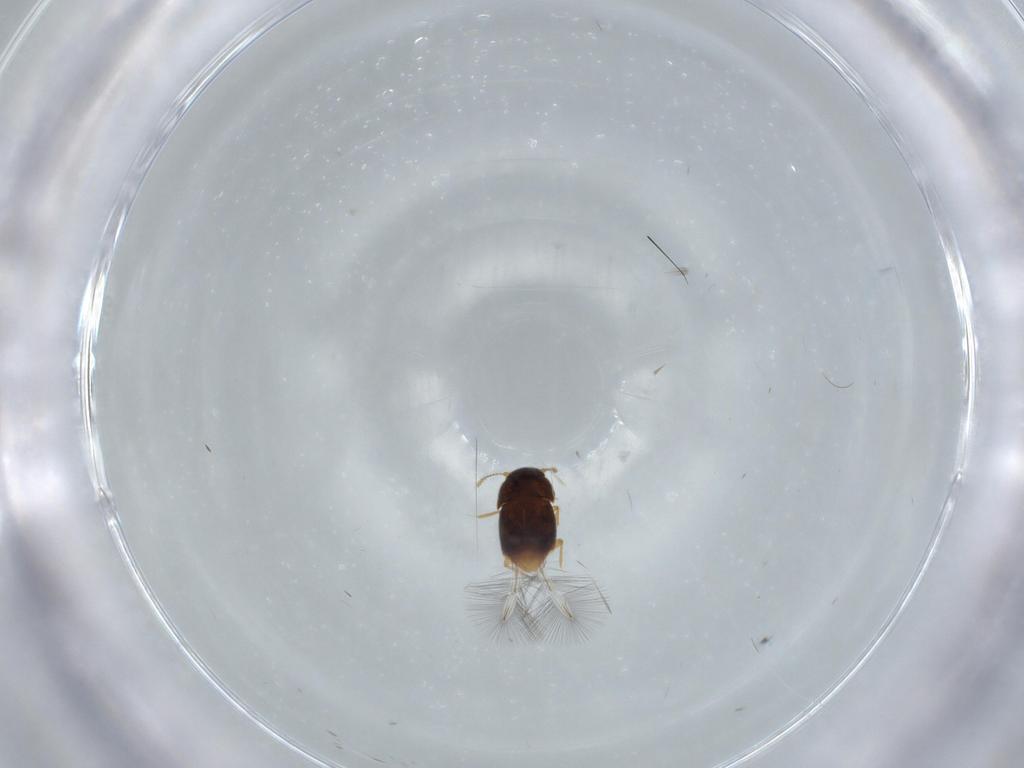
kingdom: Animalia
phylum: Arthropoda
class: Insecta
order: Coleoptera
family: Ptiliidae
